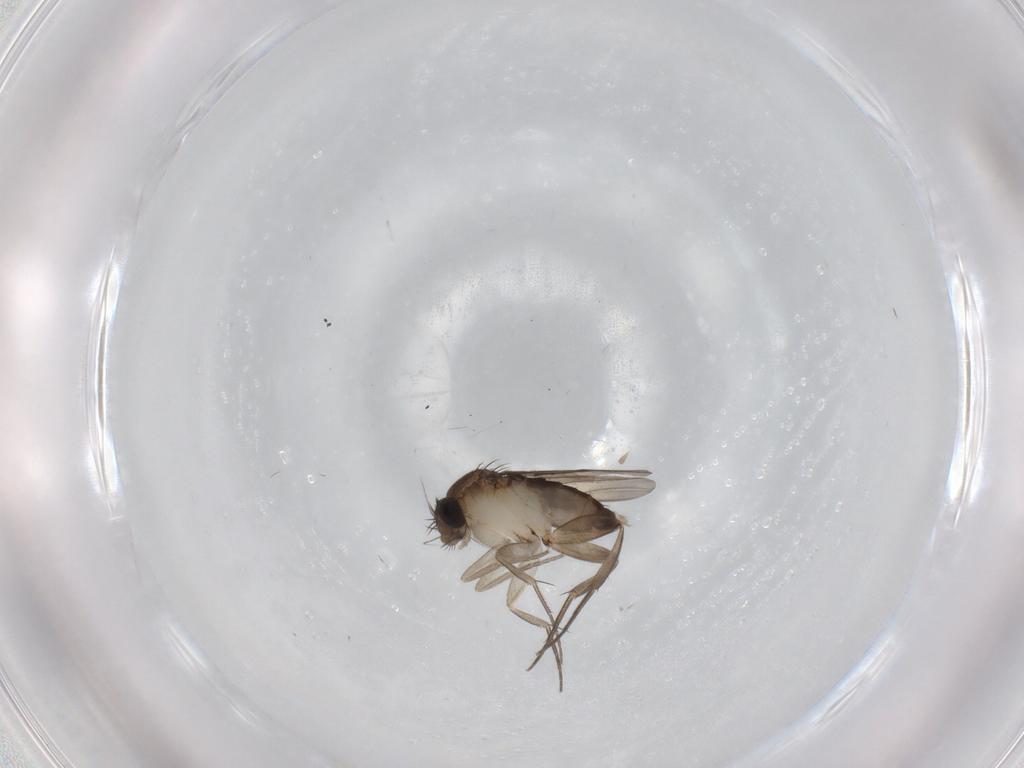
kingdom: Animalia
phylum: Arthropoda
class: Insecta
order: Diptera
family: Phoridae
